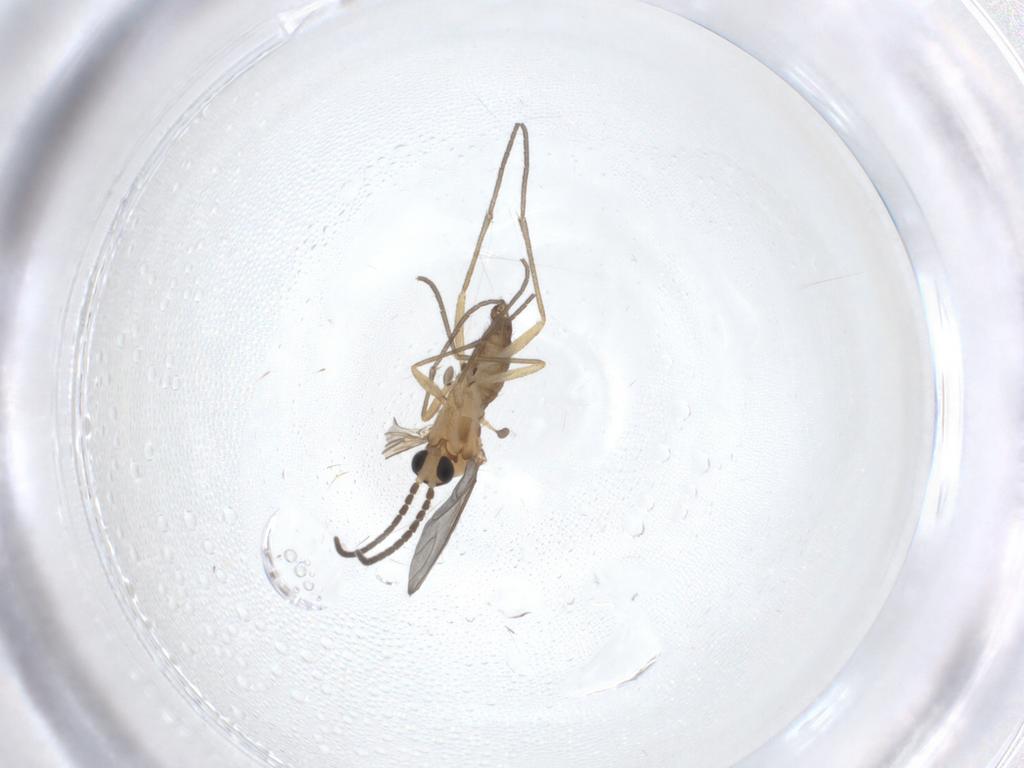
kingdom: Animalia
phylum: Arthropoda
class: Insecta
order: Diptera
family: Sciaridae
